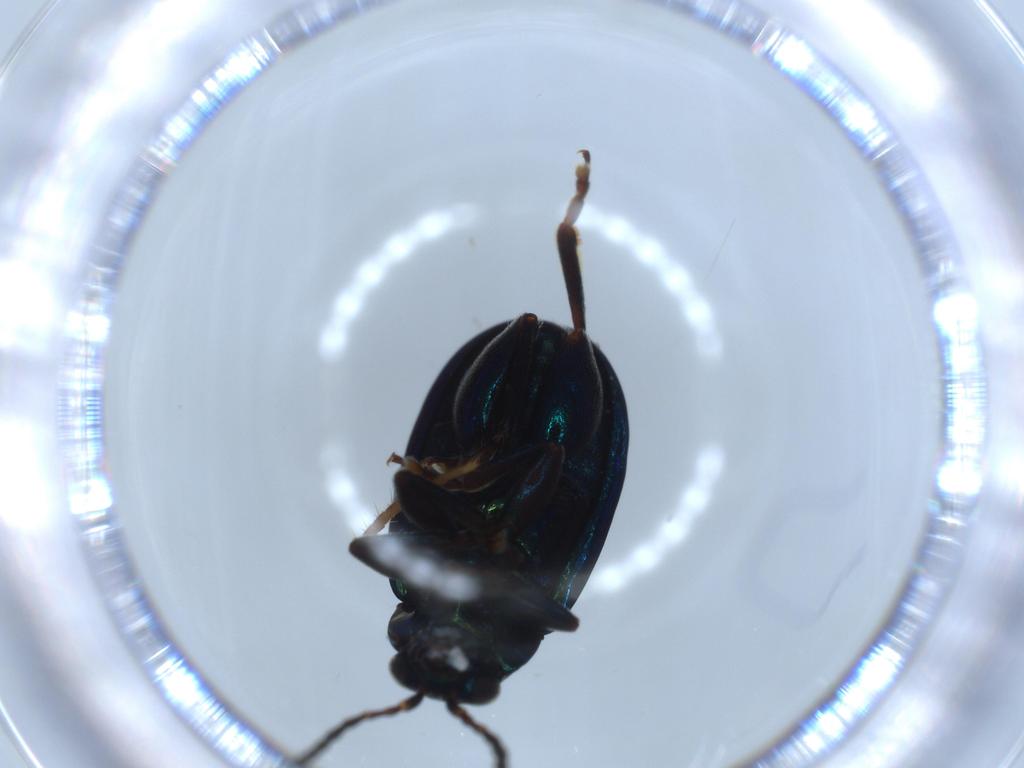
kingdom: Animalia
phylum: Arthropoda
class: Insecta
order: Coleoptera
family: Chrysomelidae
